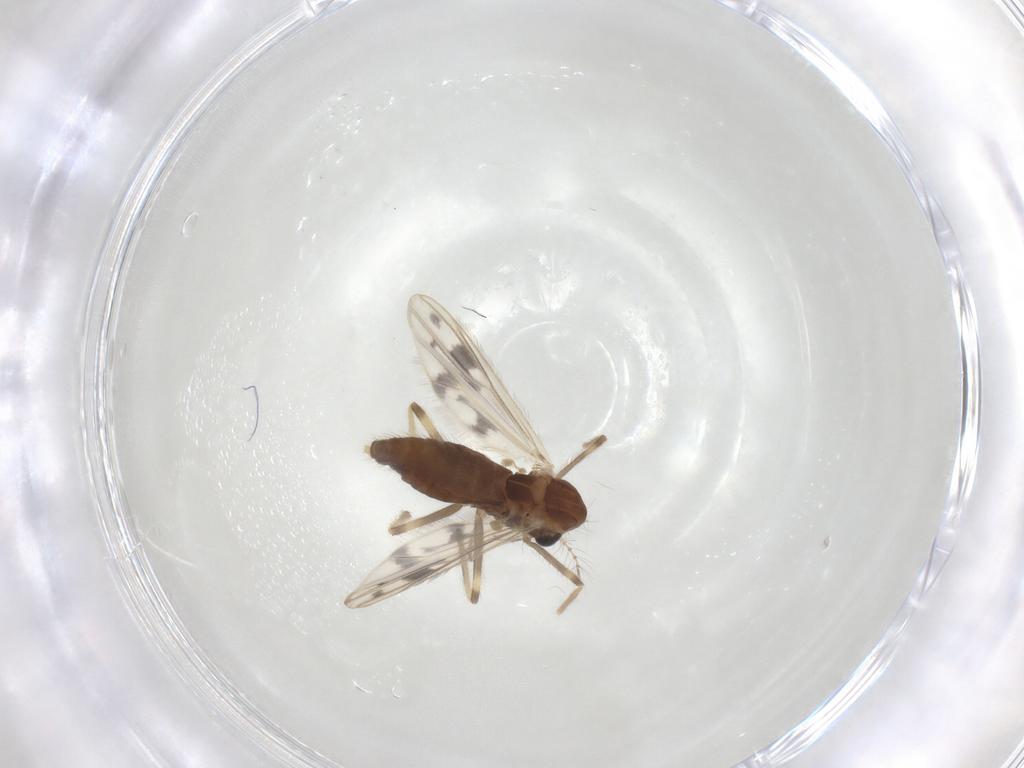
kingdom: Animalia
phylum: Arthropoda
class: Insecta
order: Diptera
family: Chironomidae
